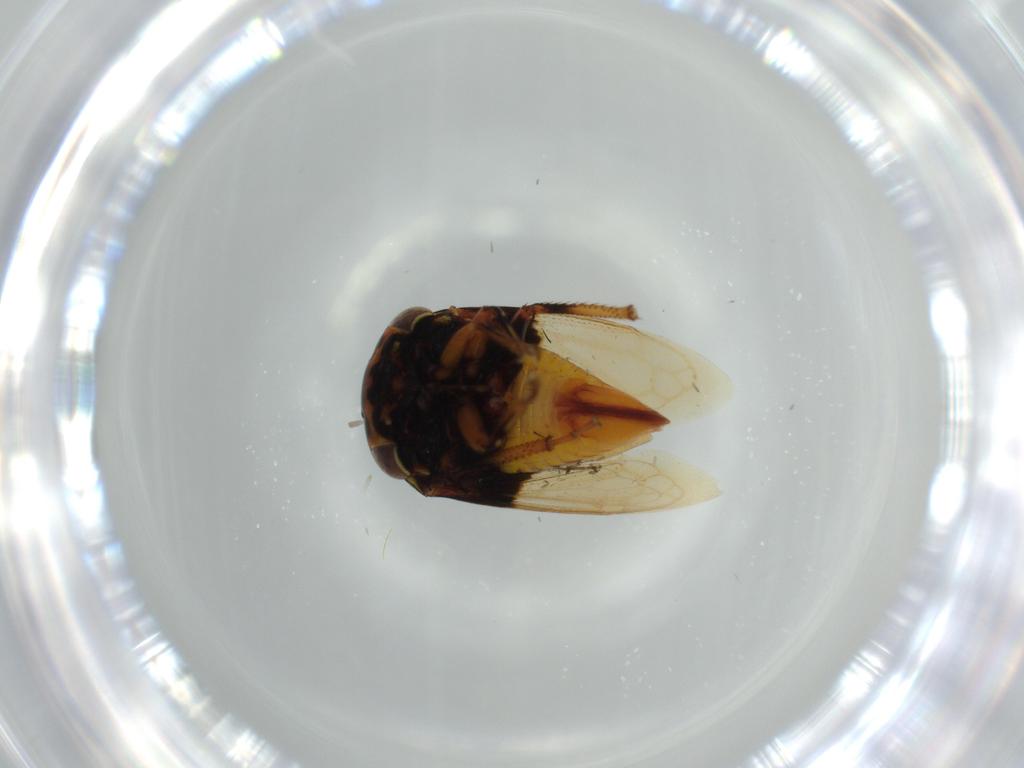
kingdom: Animalia
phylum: Arthropoda
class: Insecta
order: Hemiptera
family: Membracidae
